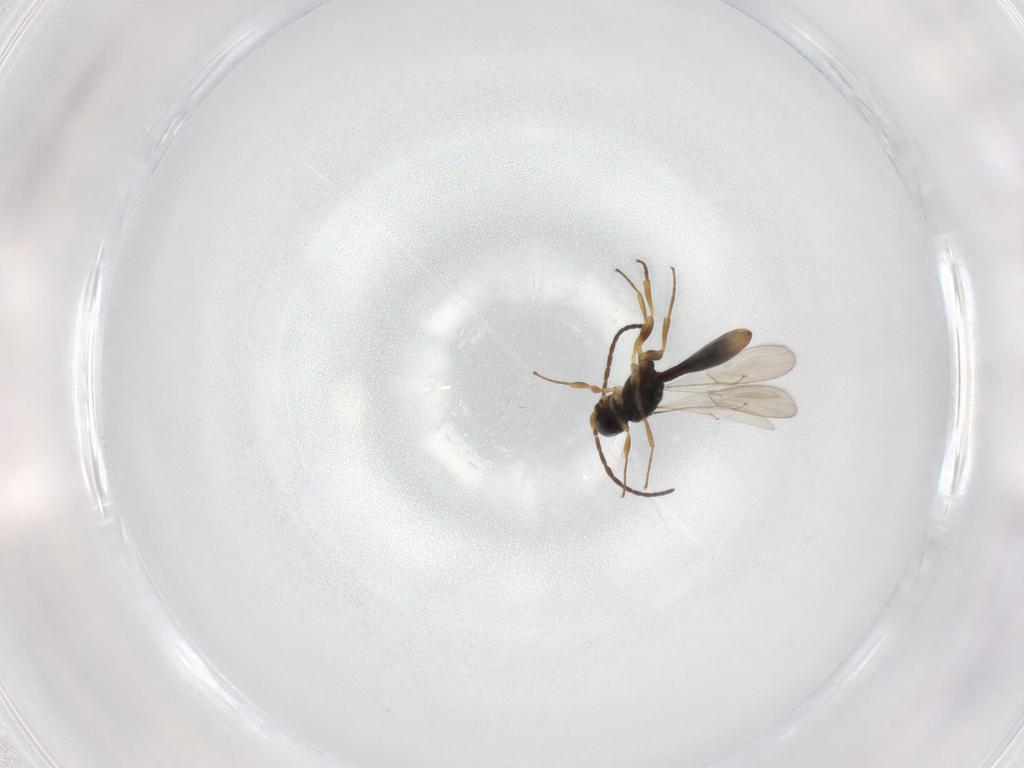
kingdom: Animalia
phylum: Arthropoda
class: Insecta
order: Hymenoptera
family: Scelionidae
